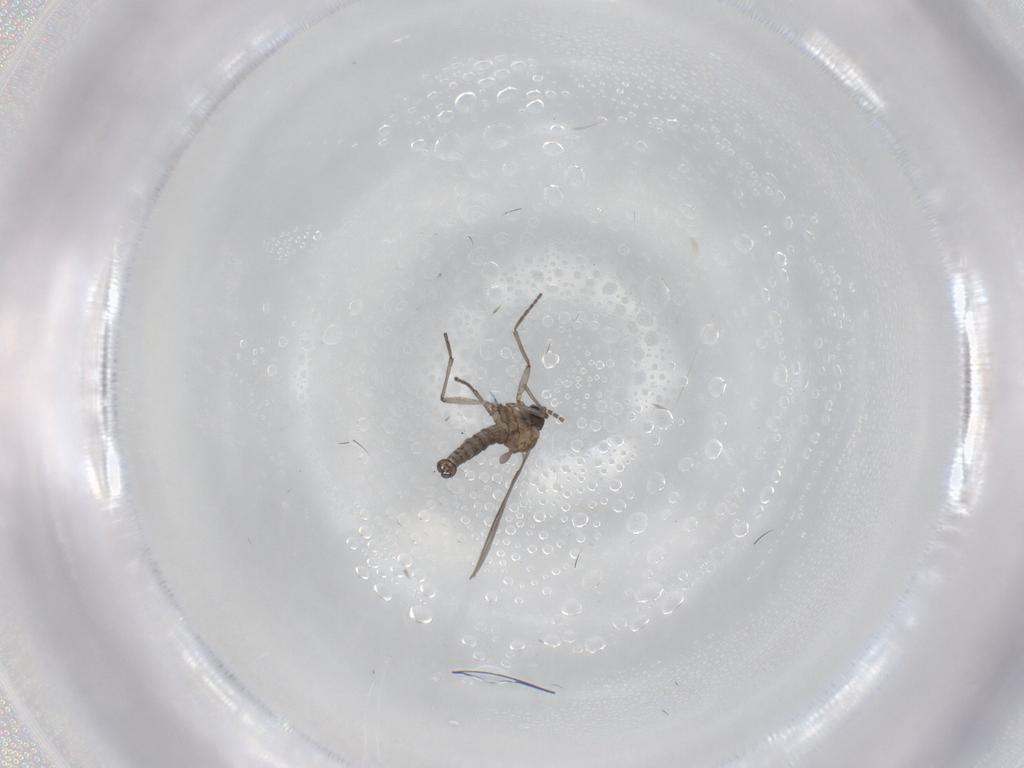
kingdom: Animalia
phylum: Arthropoda
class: Insecta
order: Diptera
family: Sciaridae
